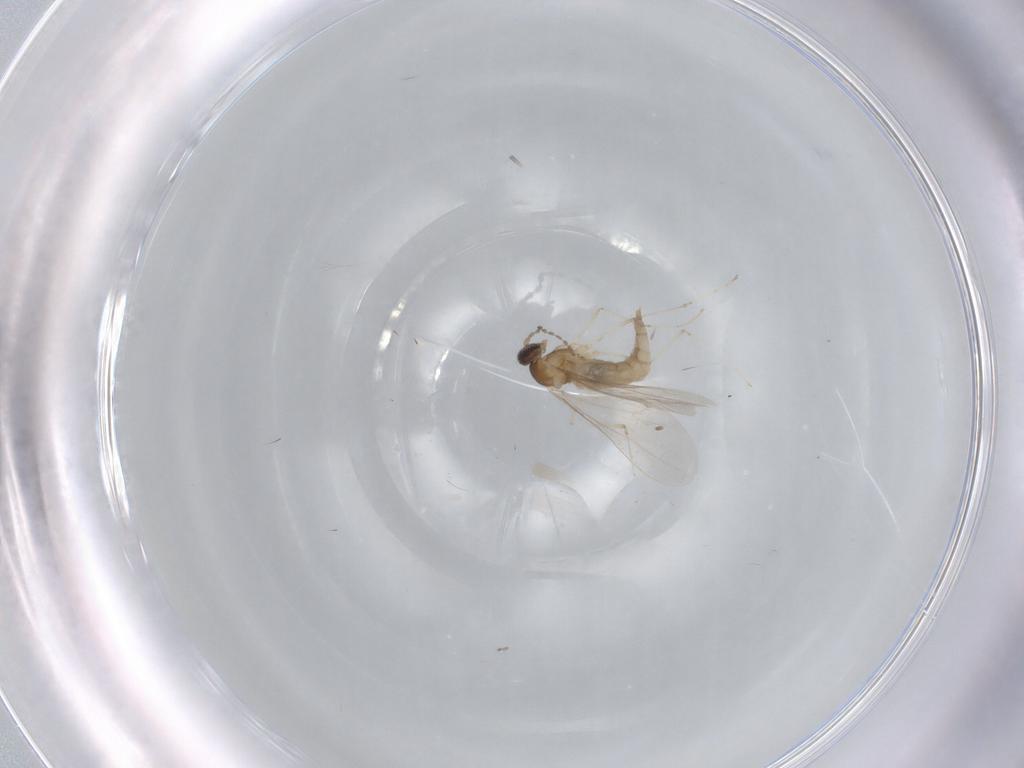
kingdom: Animalia
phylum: Arthropoda
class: Insecta
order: Diptera
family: Cecidomyiidae
